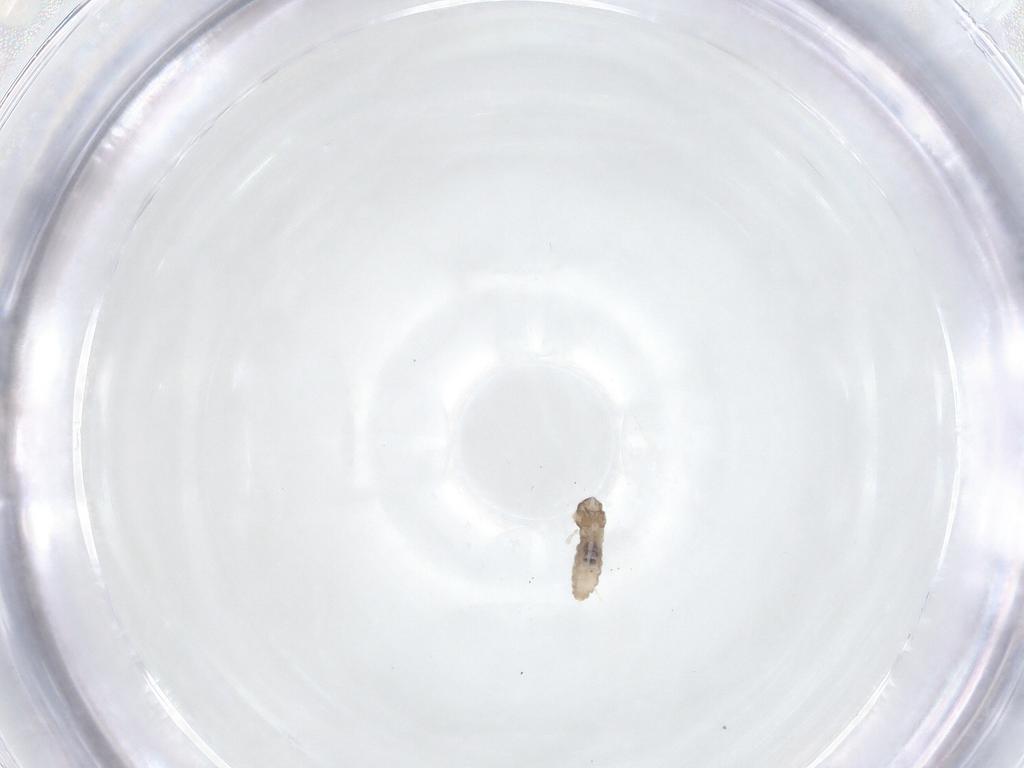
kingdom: Animalia
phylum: Arthropoda
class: Insecta
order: Diptera
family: Cecidomyiidae
